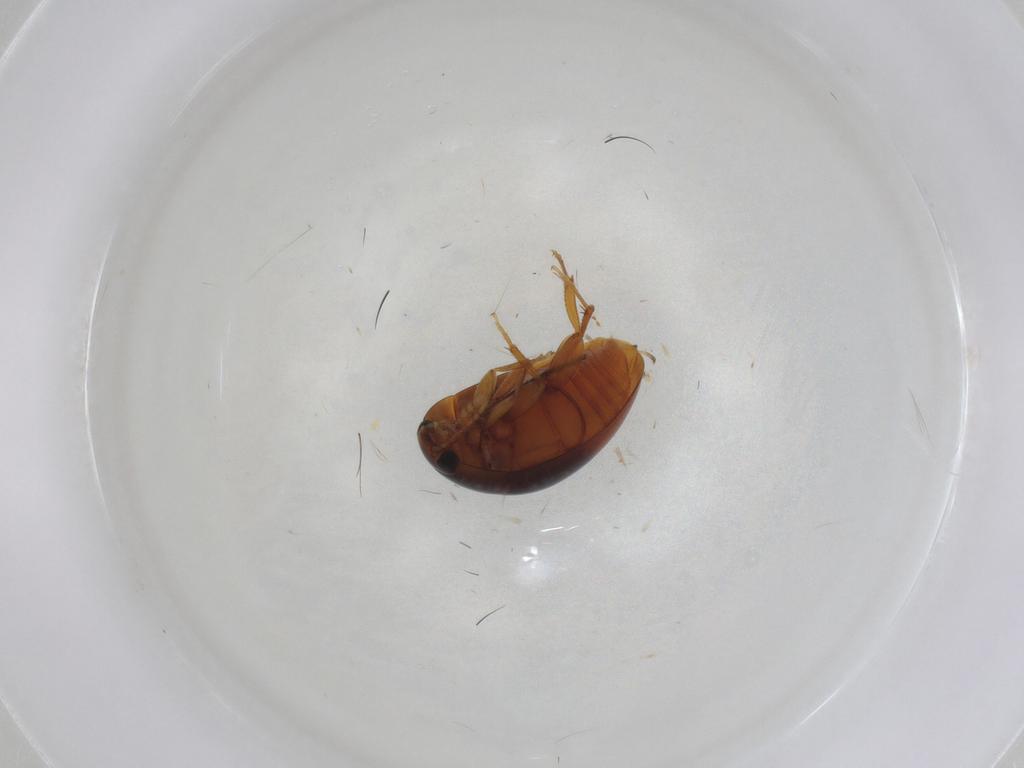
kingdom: Animalia
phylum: Arthropoda
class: Insecta
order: Coleoptera
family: Phalacridae
